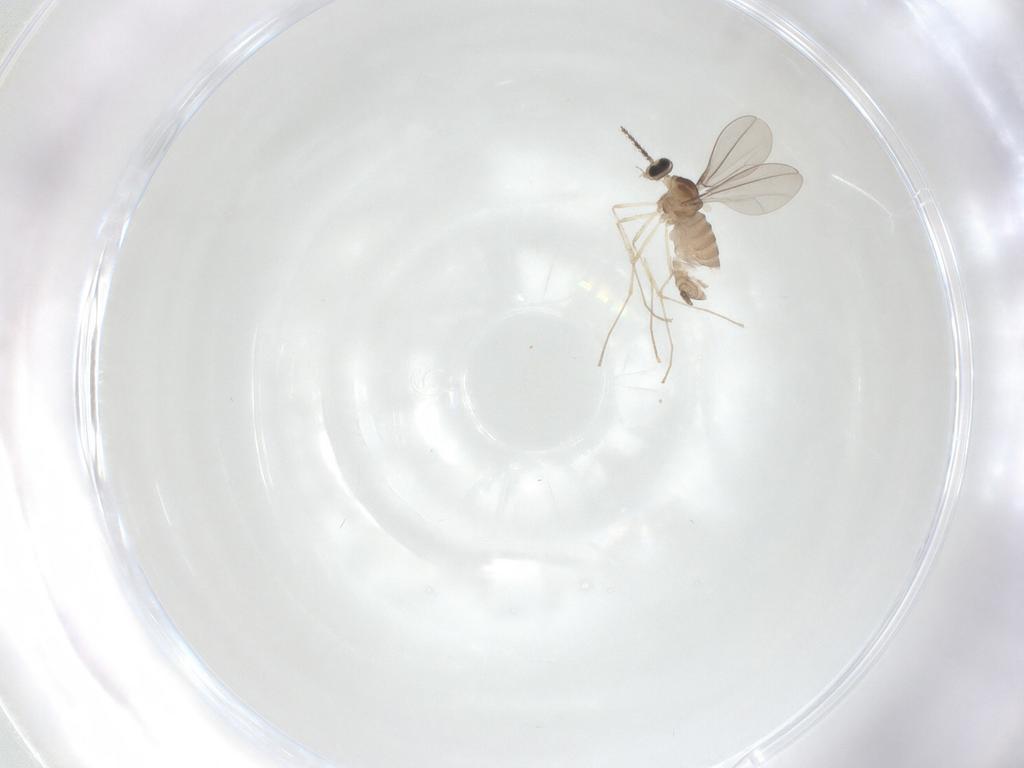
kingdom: Animalia
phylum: Arthropoda
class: Insecta
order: Diptera
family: Cecidomyiidae
